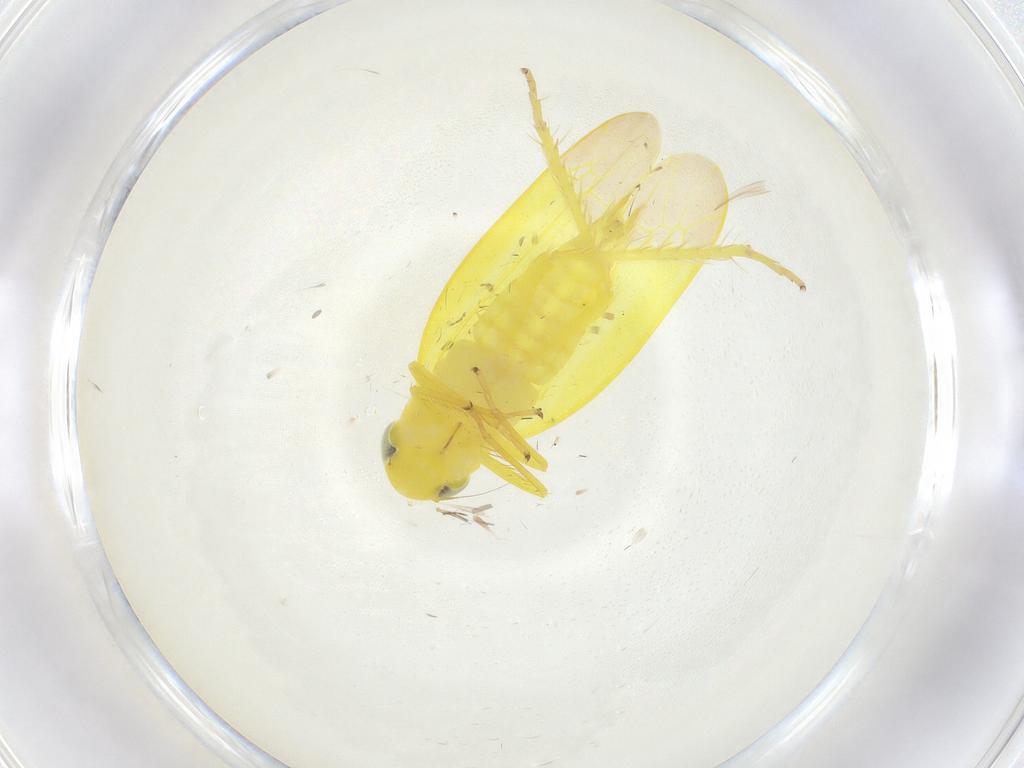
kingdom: Animalia
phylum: Arthropoda
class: Insecta
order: Hemiptera
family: Cicadellidae
